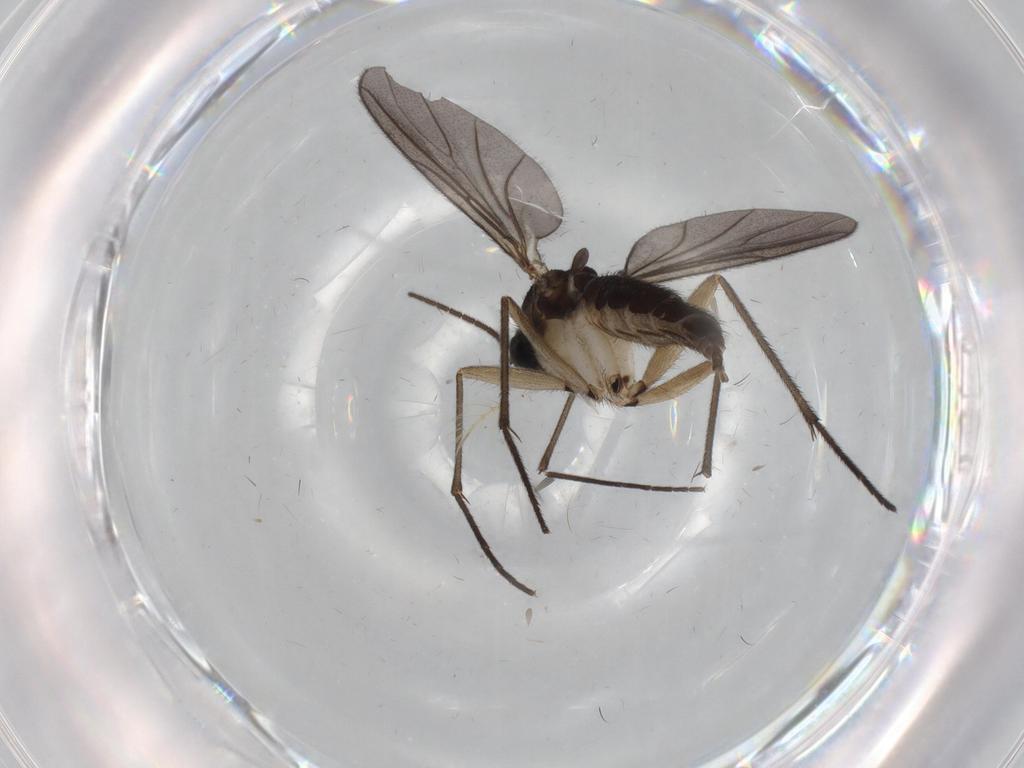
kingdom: Animalia
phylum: Arthropoda
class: Insecta
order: Diptera
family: Sciaridae
